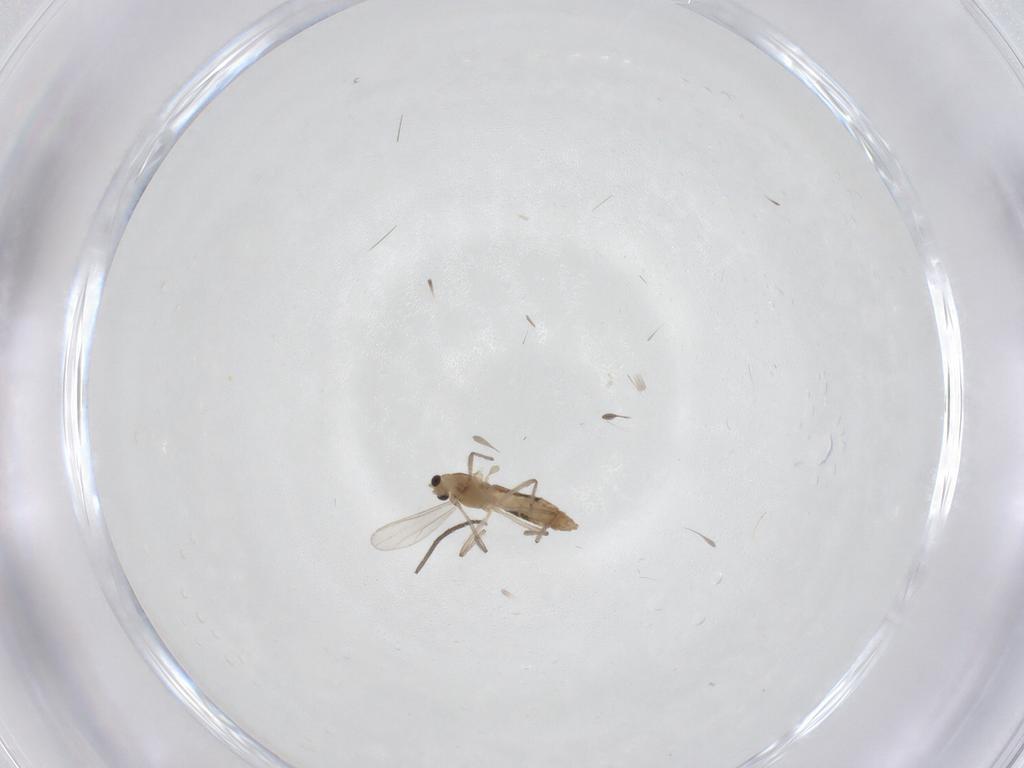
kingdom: Animalia
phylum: Arthropoda
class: Insecta
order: Diptera
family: Chironomidae
